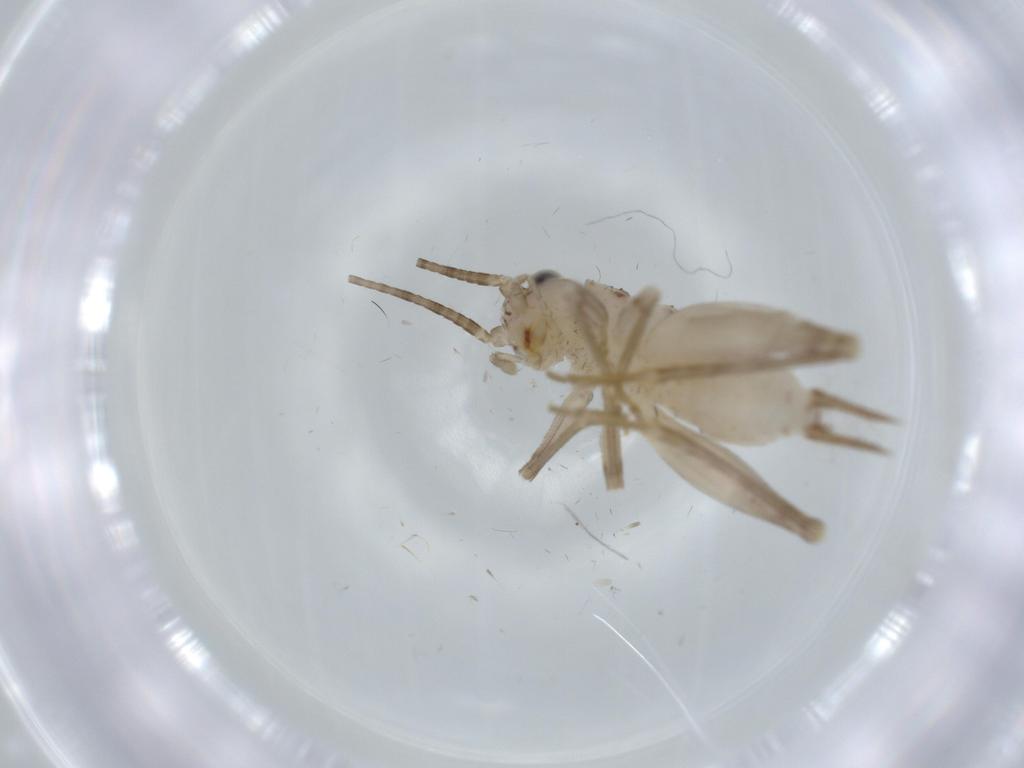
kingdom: Animalia
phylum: Arthropoda
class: Insecta
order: Orthoptera
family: Trigonidiidae
